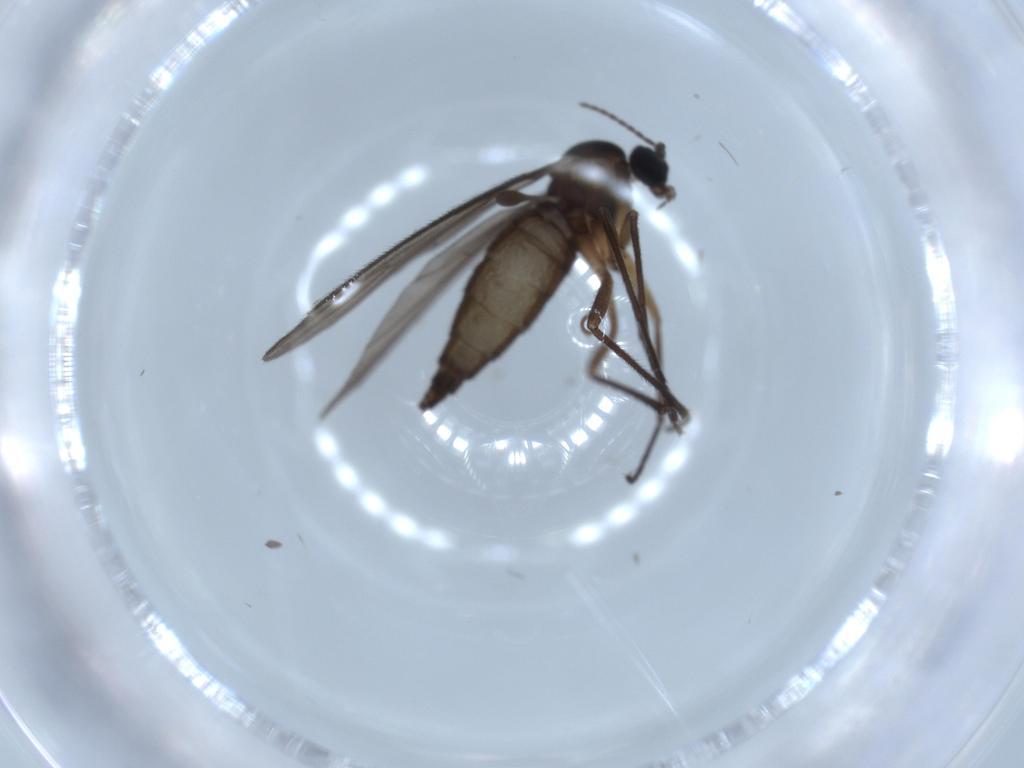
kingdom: Animalia
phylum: Arthropoda
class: Insecta
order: Diptera
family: Sciaridae
